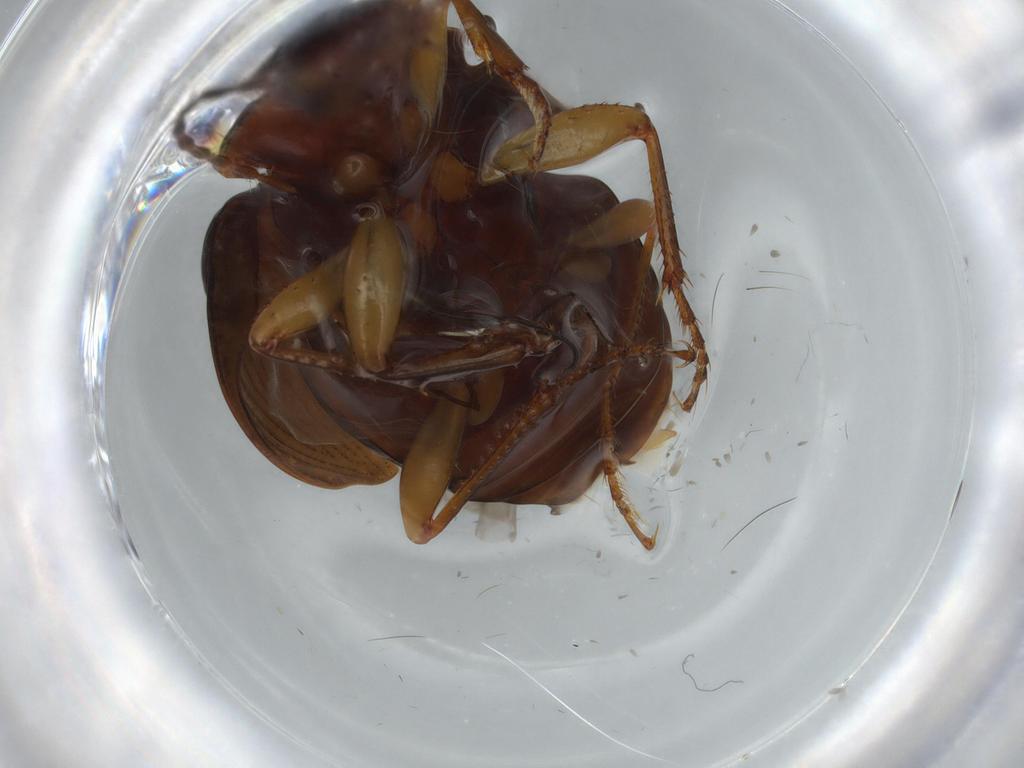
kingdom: Animalia
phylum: Arthropoda
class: Insecta
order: Coleoptera
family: Carabidae
